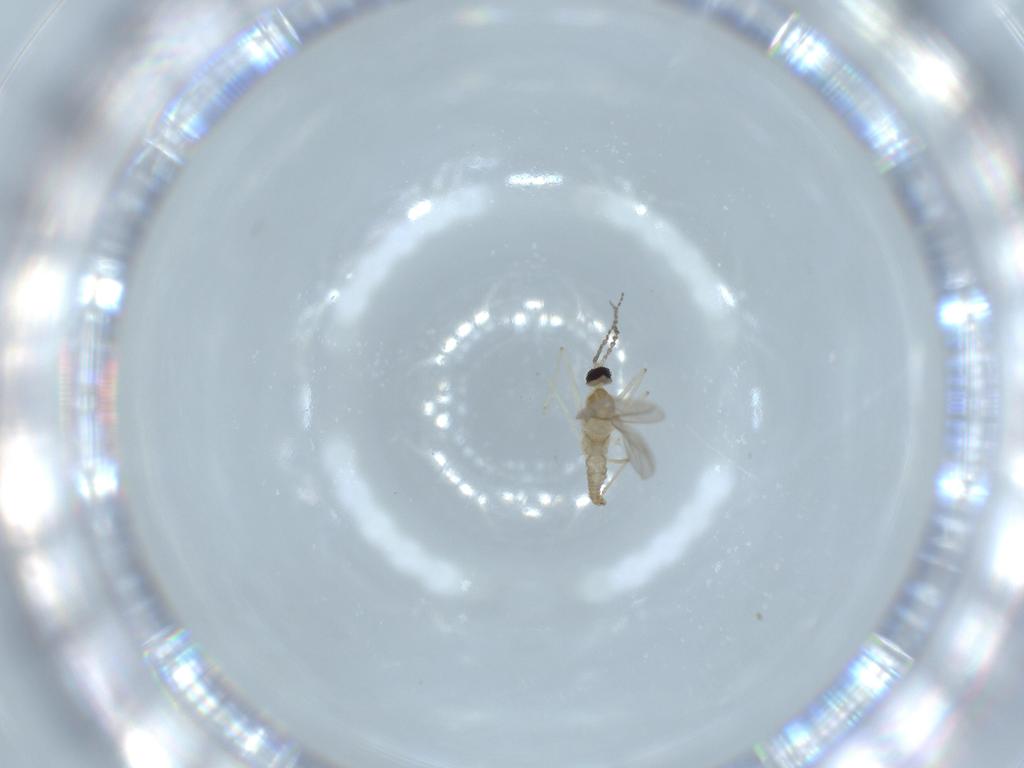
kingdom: Animalia
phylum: Arthropoda
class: Insecta
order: Diptera
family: Cecidomyiidae
